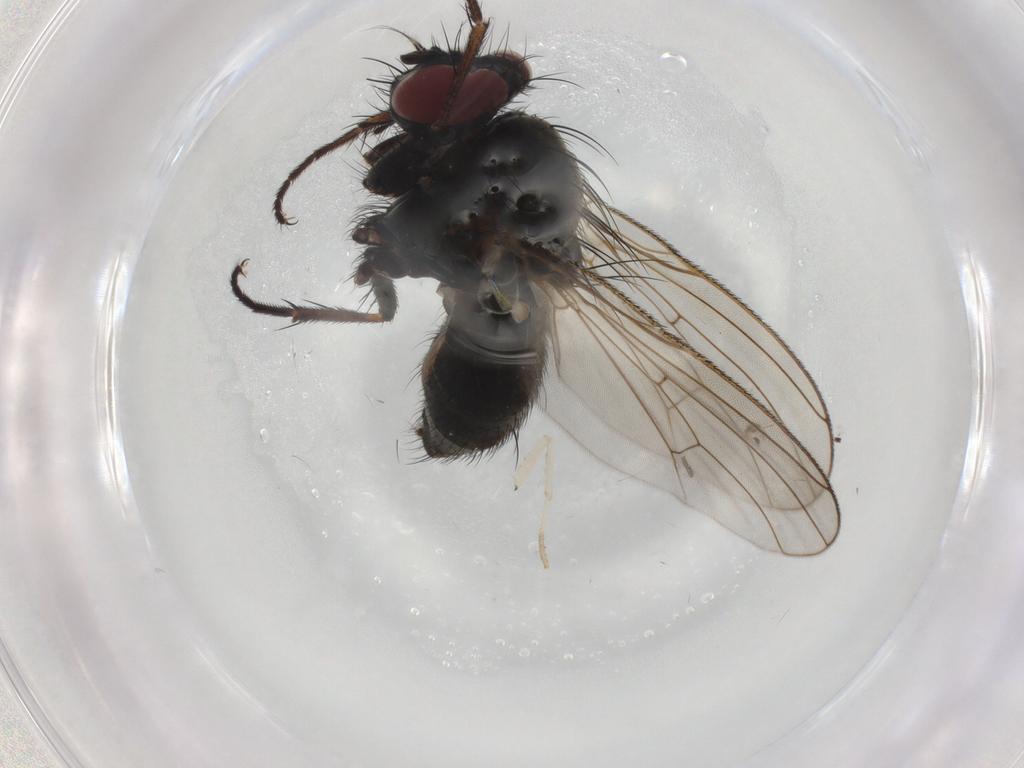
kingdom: Animalia
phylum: Arthropoda
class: Insecta
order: Diptera
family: Muscidae
